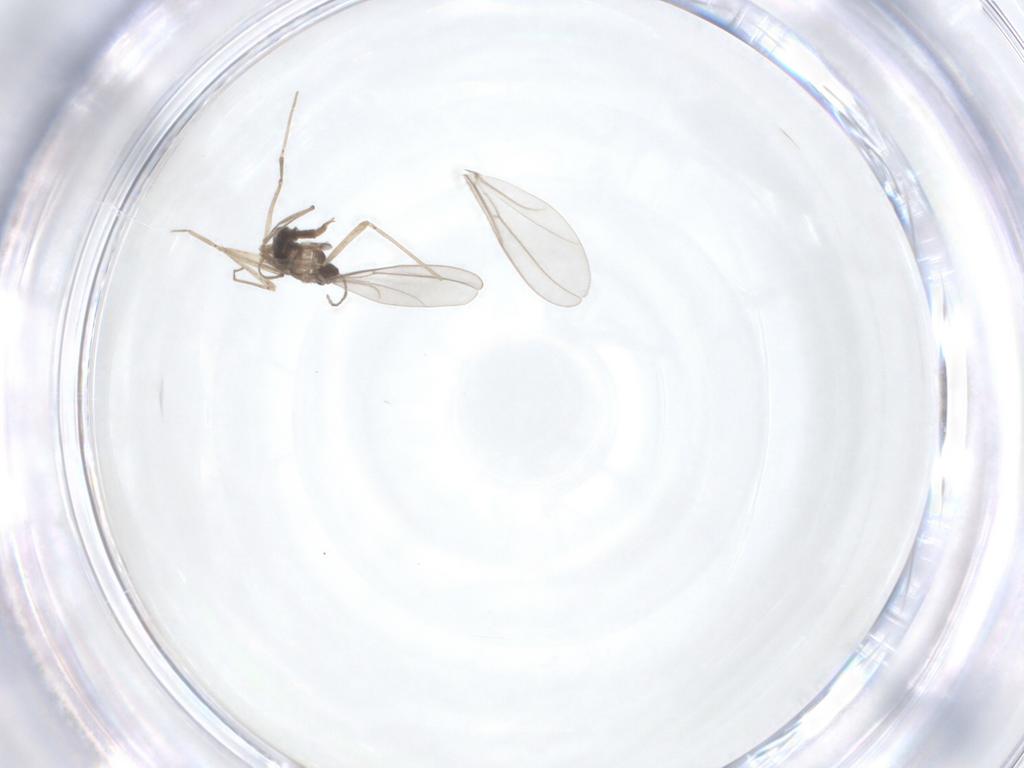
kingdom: Animalia
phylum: Arthropoda
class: Insecta
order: Diptera
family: Cecidomyiidae
